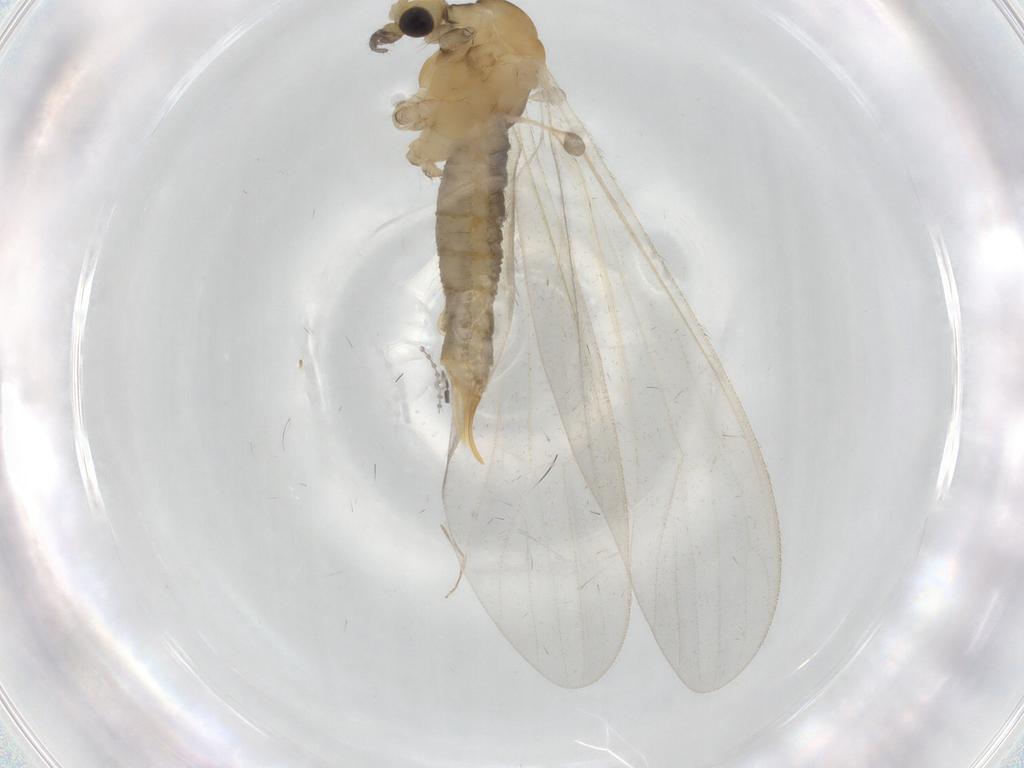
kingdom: Animalia
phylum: Arthropoda
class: Insecta
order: Diptera
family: Limoniidae
